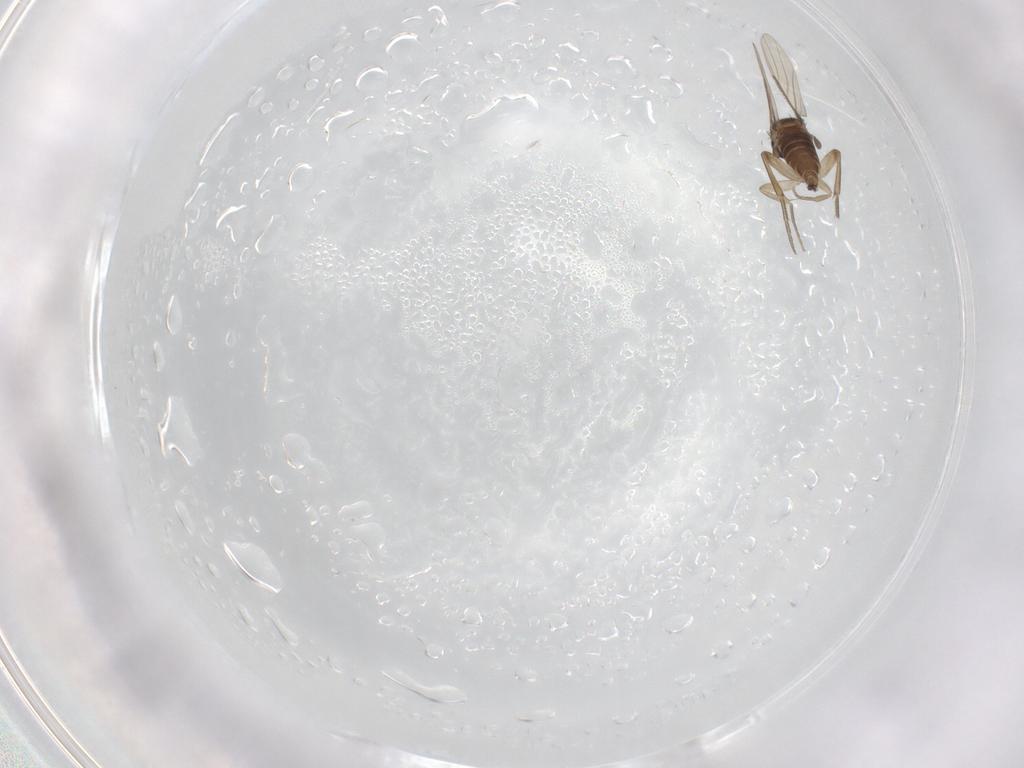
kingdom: Animalia
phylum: Arthropoda
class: Insecta
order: Diptera
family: Phoridae
